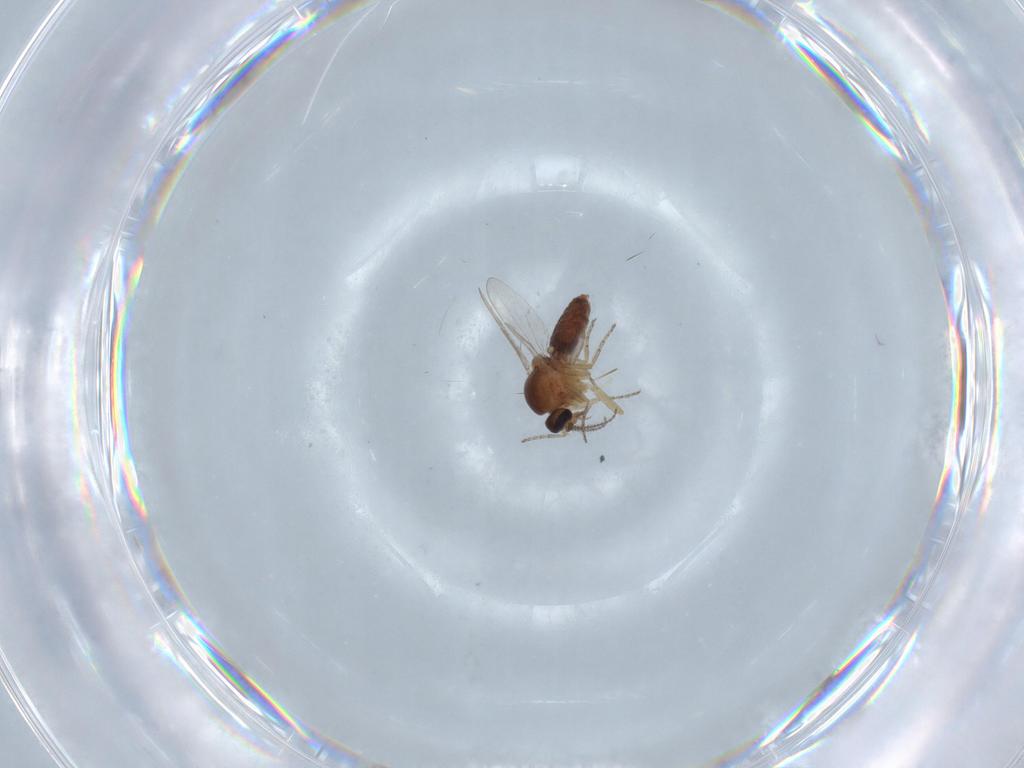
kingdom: Animalia
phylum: Arthropoda
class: Insecta
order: Diptera
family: Ceratopogonidae
